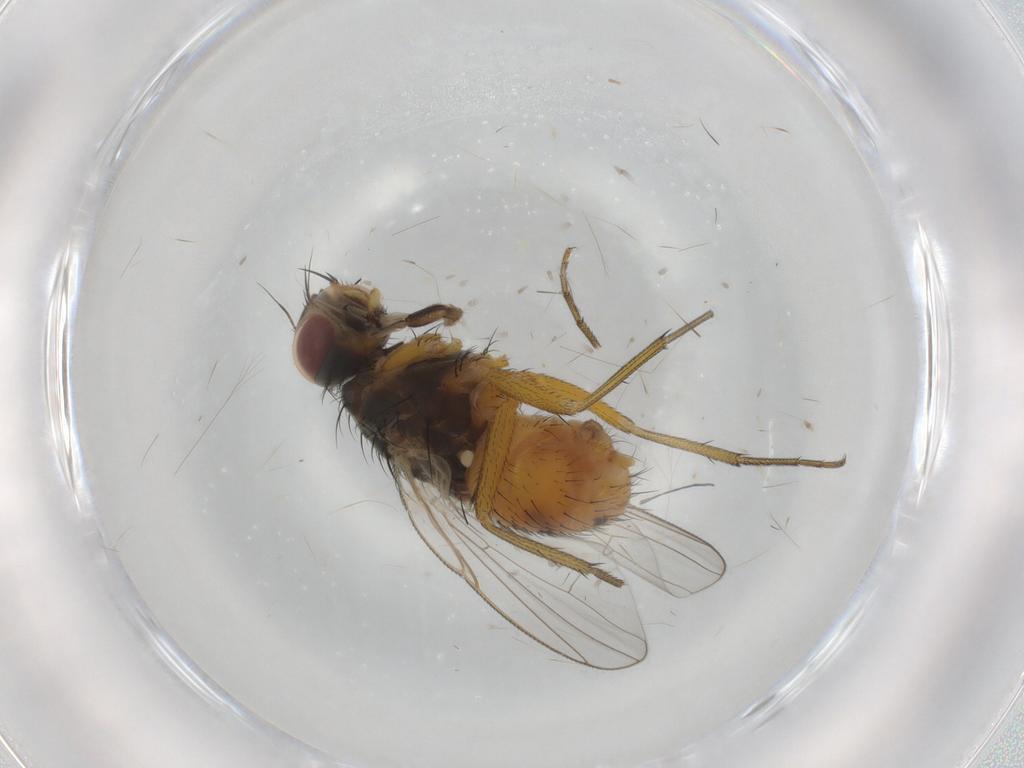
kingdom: Animalia
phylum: Arthropoda
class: Insecta
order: Diptera
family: Muscidae
